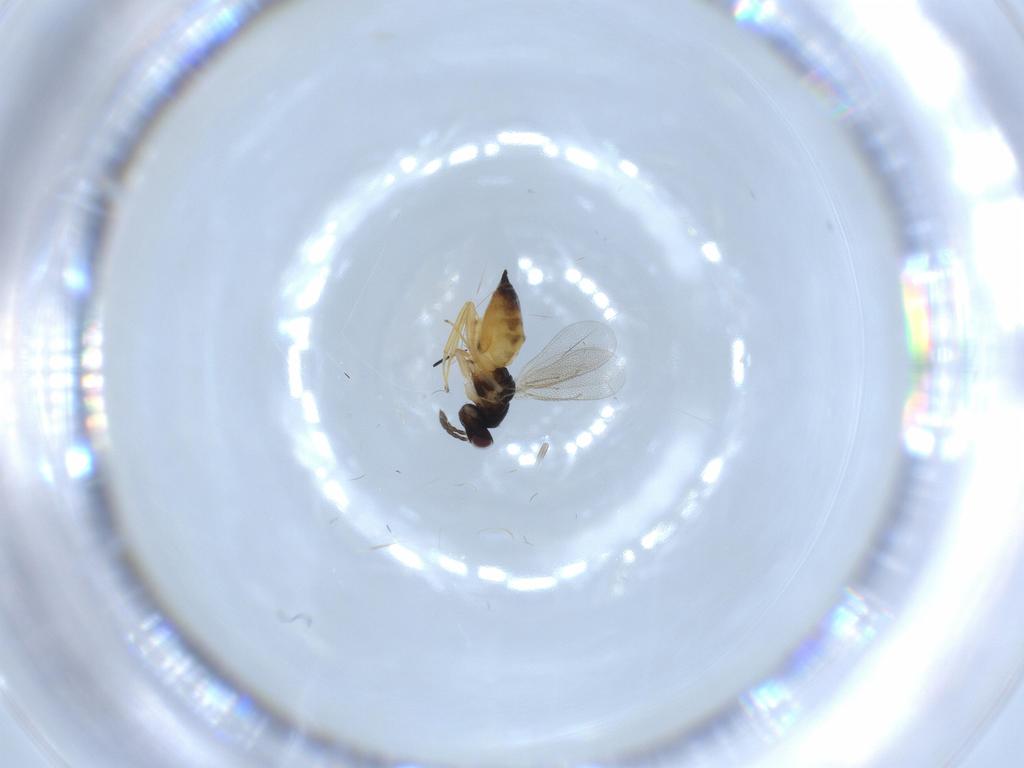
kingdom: Animalia
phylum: Arthropoda
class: Insecta
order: Hymenoptera
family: Eulophidae
